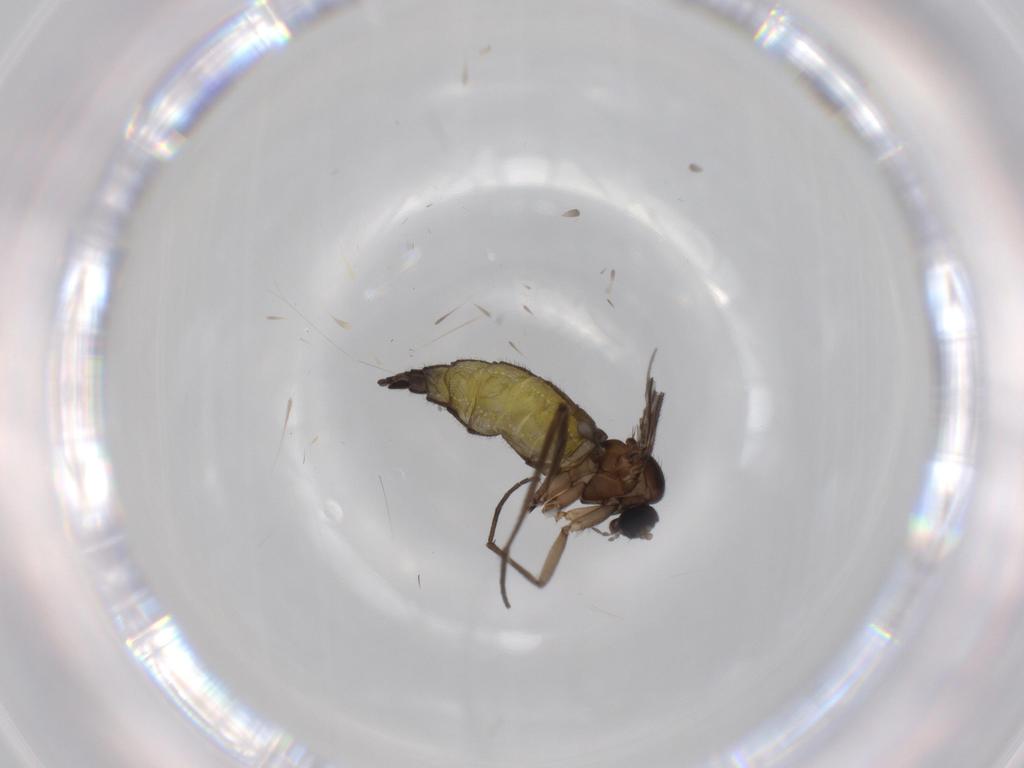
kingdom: Animalia
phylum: Arthropoda
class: Insecta
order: Diptera
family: Sciaridae
